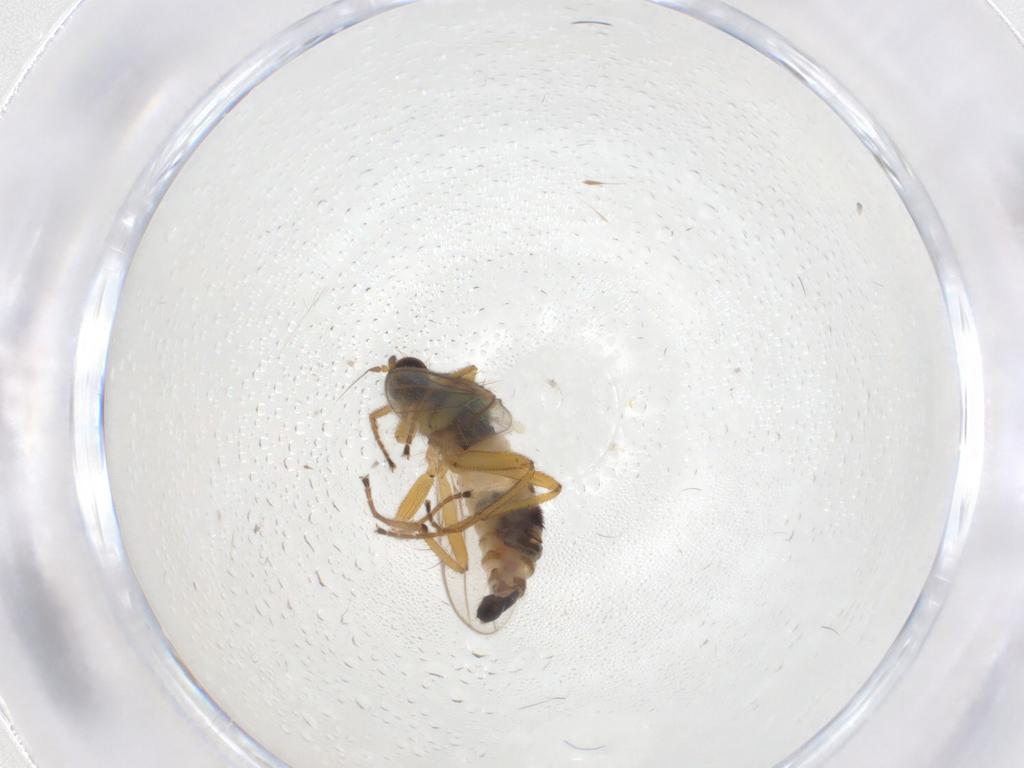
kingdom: Animalia
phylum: Arthropoda
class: Insecta
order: Diptera
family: Hybotidae
